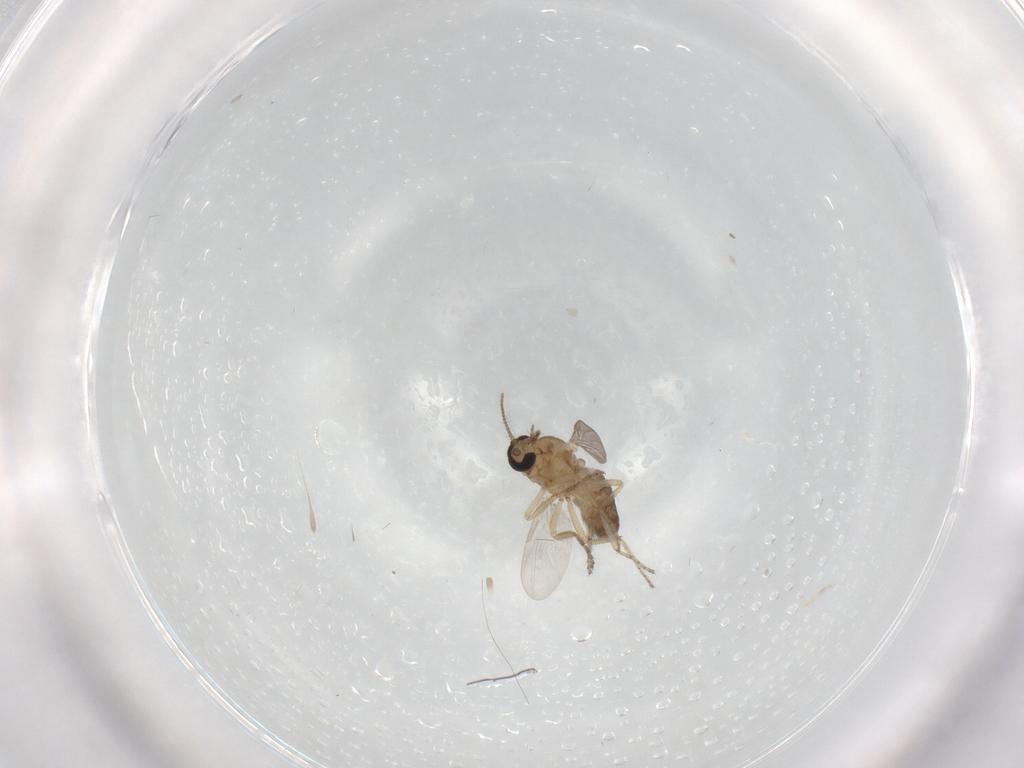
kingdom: Animalia
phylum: Arthropoda
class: Insecta
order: Diptera
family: Ceratopogonidae
